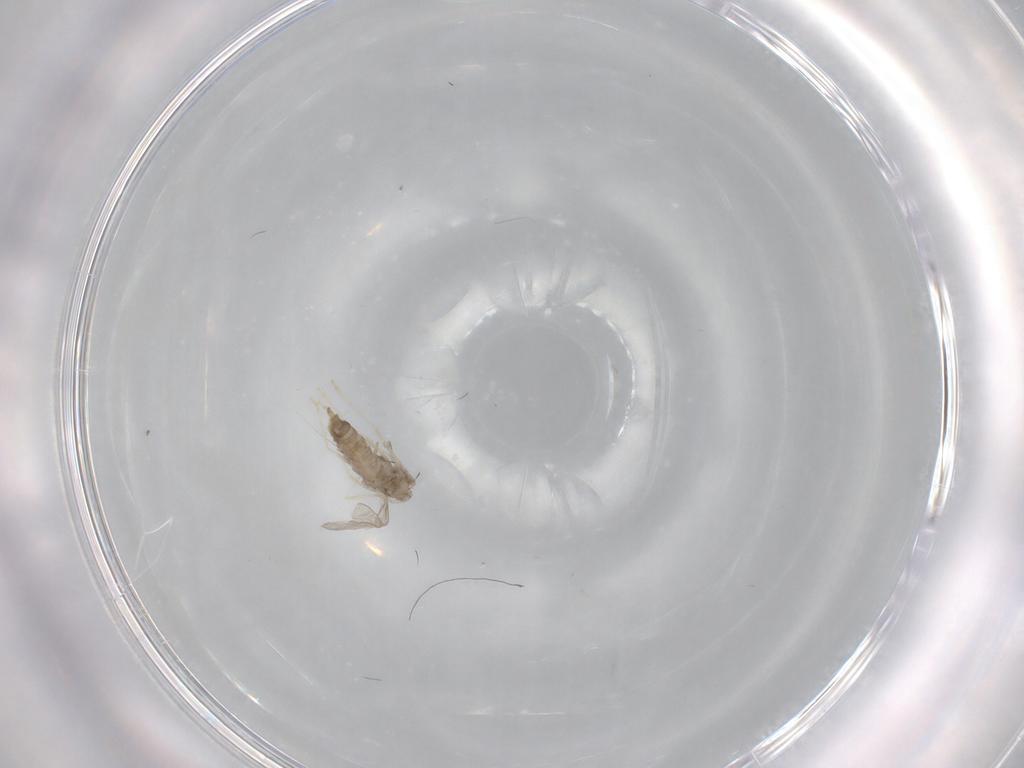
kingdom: Animalia
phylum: Arthropoda
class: Insecta
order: Diptera
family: Cecidomyiidae
